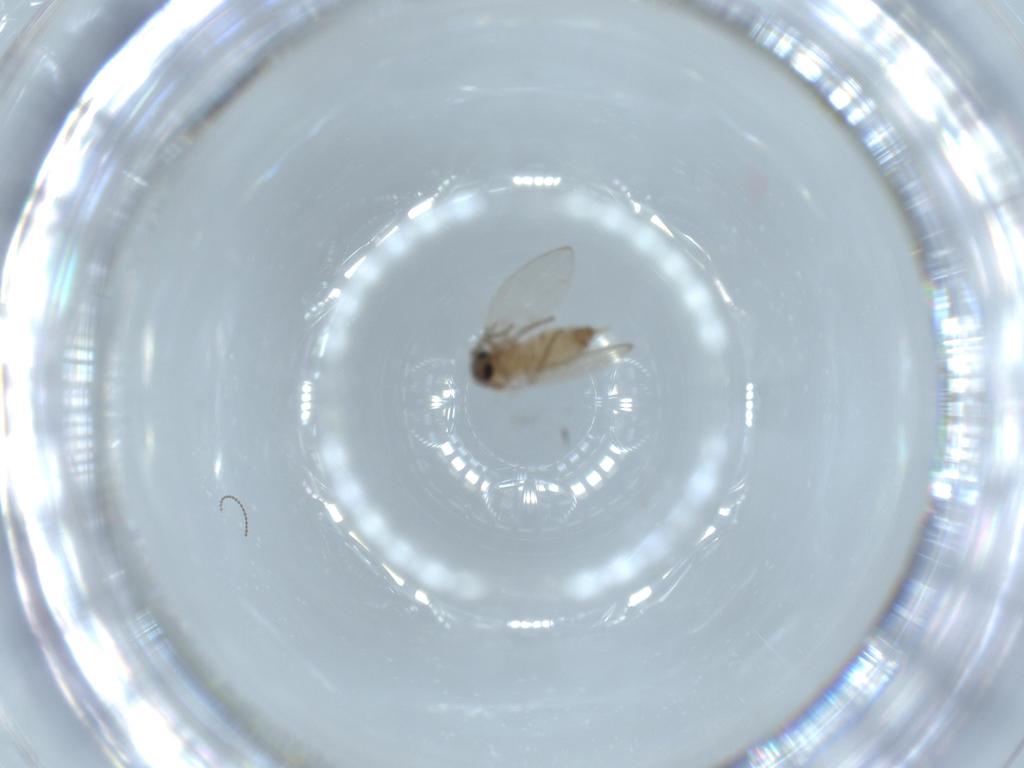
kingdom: Animalia
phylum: Arthropoda
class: Insecta
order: Diptera
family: Psychodidae
